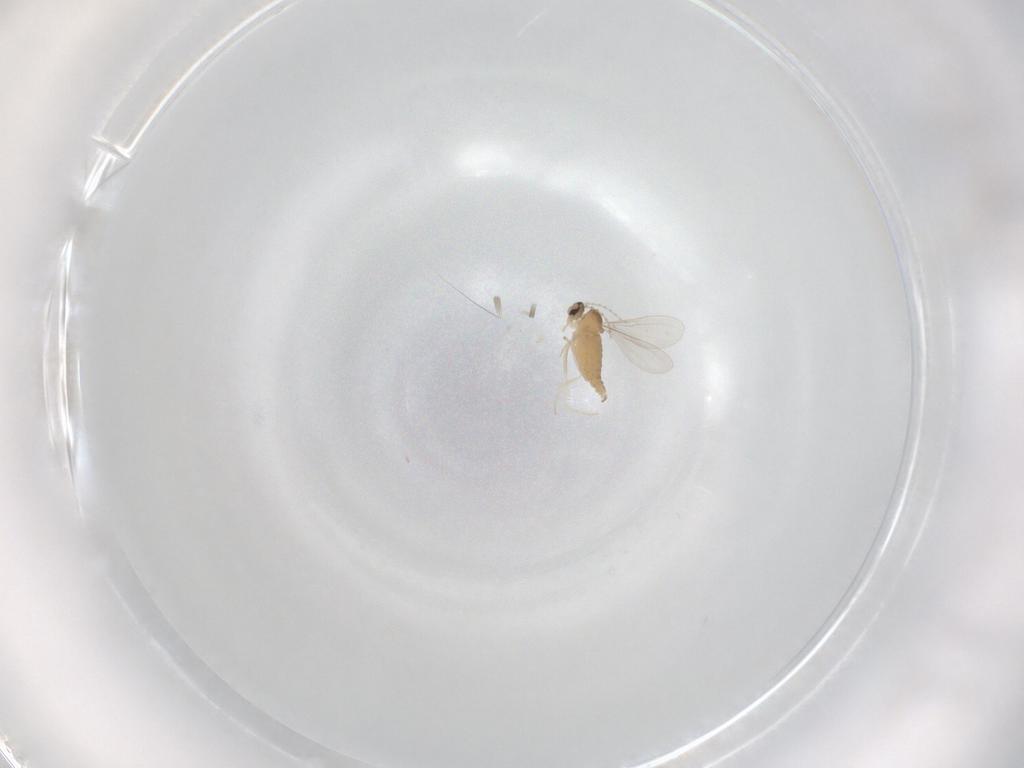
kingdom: Animalia
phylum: Arthropoda
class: Insecta
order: Diptera
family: Cecidomyiidae
